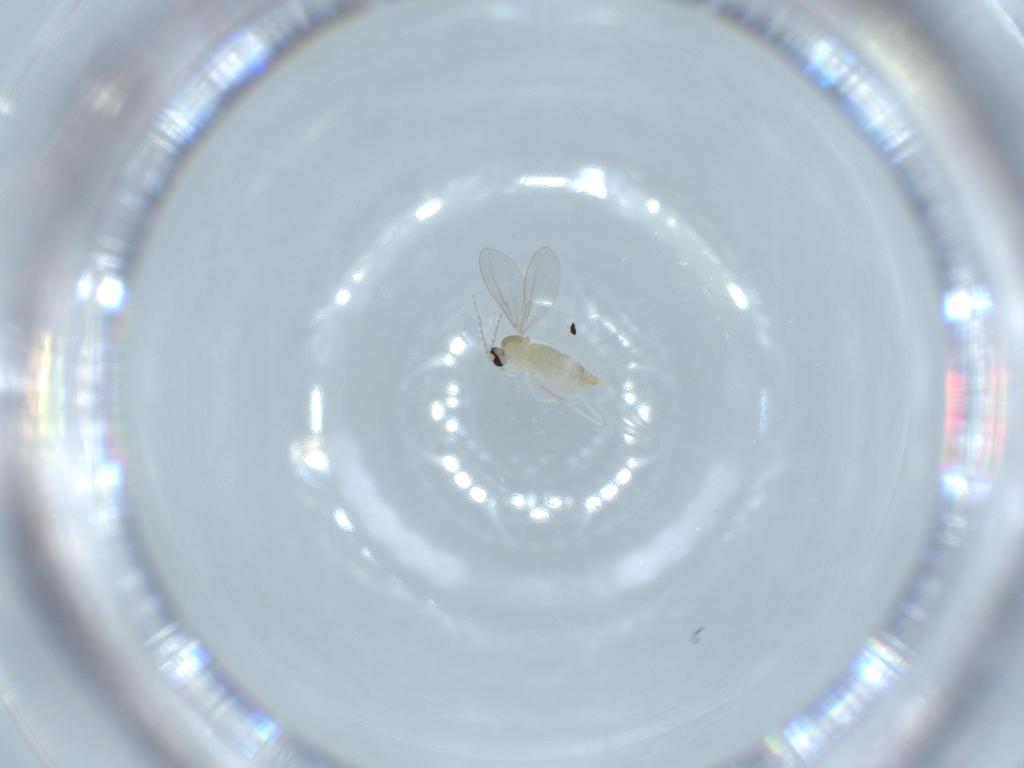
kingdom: Animalia
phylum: Arthropoda
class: Insecta
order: Diptera
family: Cecidomyiidae
